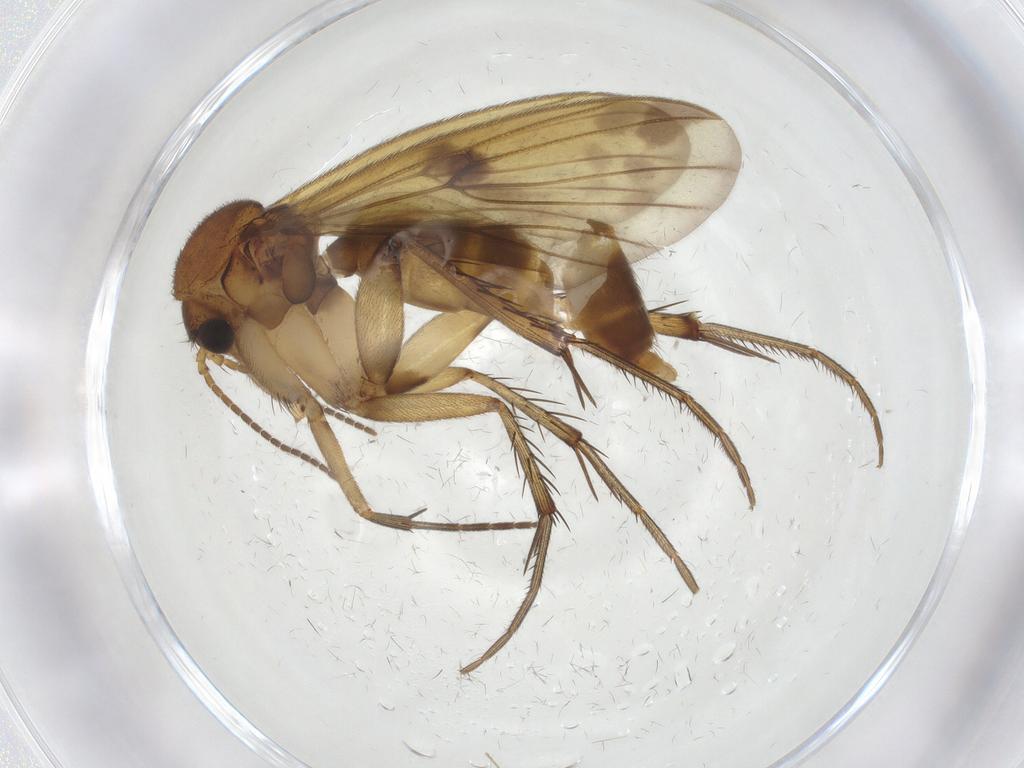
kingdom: Animalia
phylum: Arthropoda
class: Insecta
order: Diptera
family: Mycetophilidae
